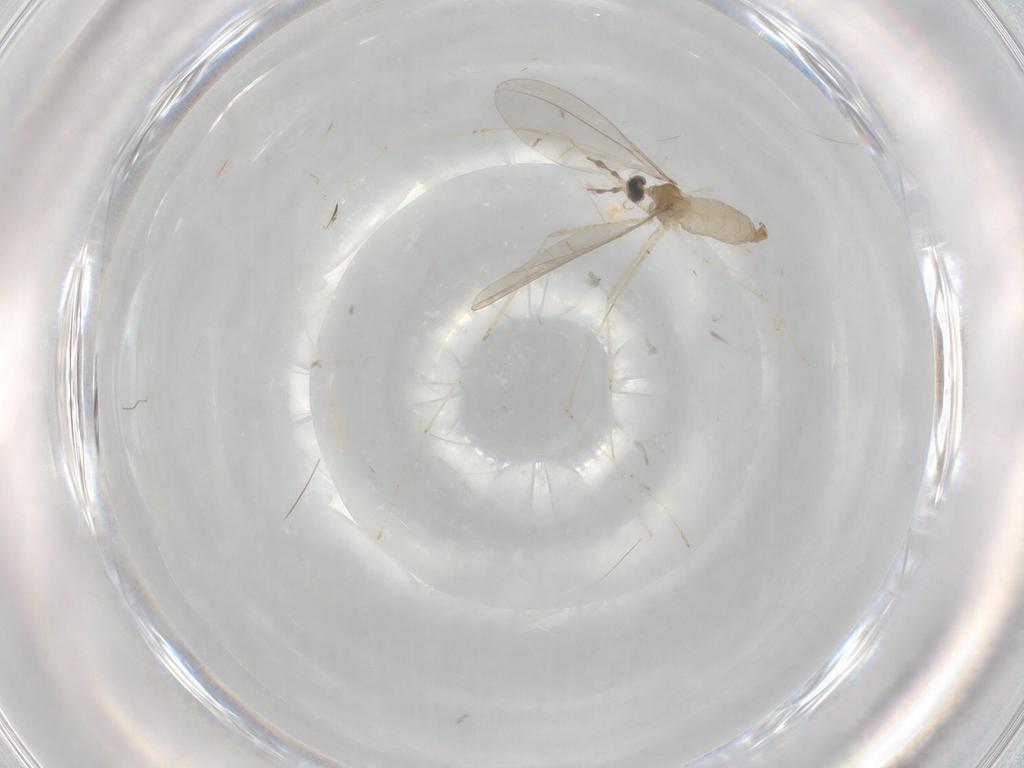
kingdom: Animalia
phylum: Arthropoda
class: Insecta
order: Diptera
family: Cecidomyiidae
